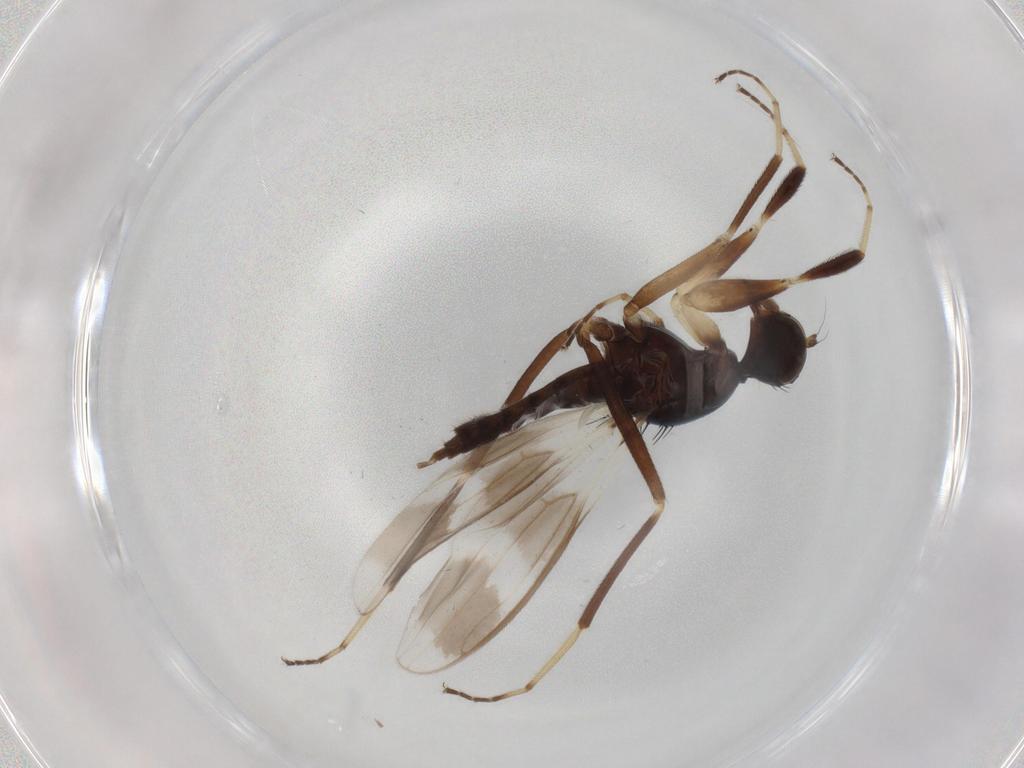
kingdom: Animalia
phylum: Arthropoda
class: Insecta
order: Diptera
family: Hybotidae
